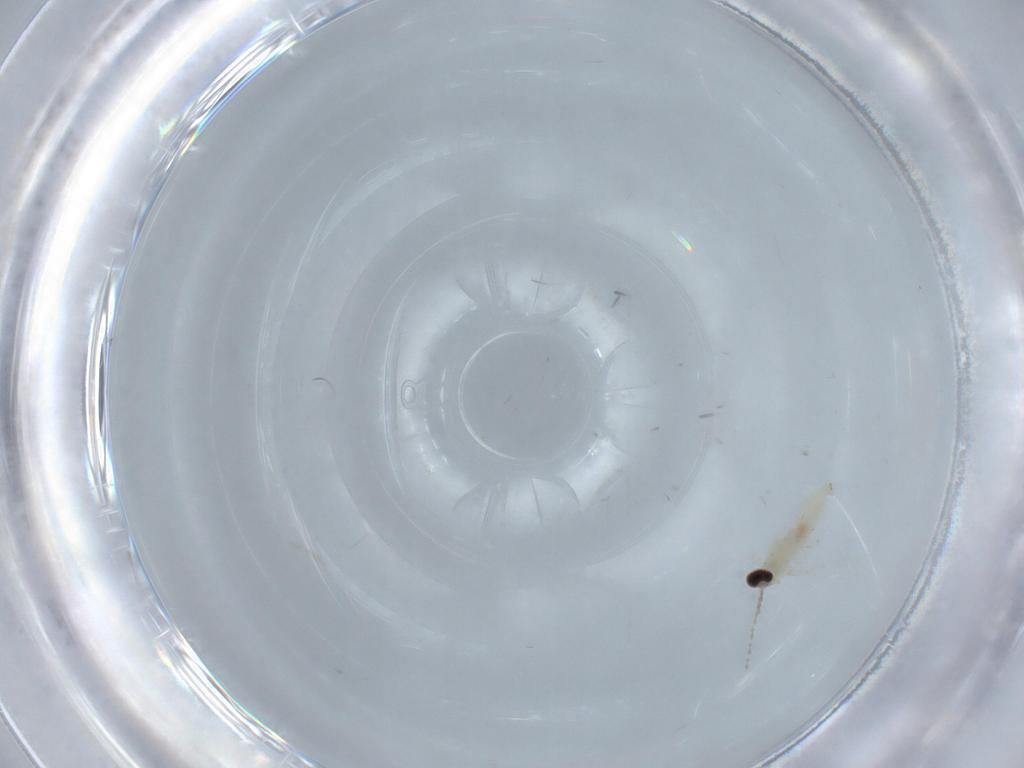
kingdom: Animalia
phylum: Arthropoda
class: Insecta
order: Diptera
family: Cecidomyiidae
